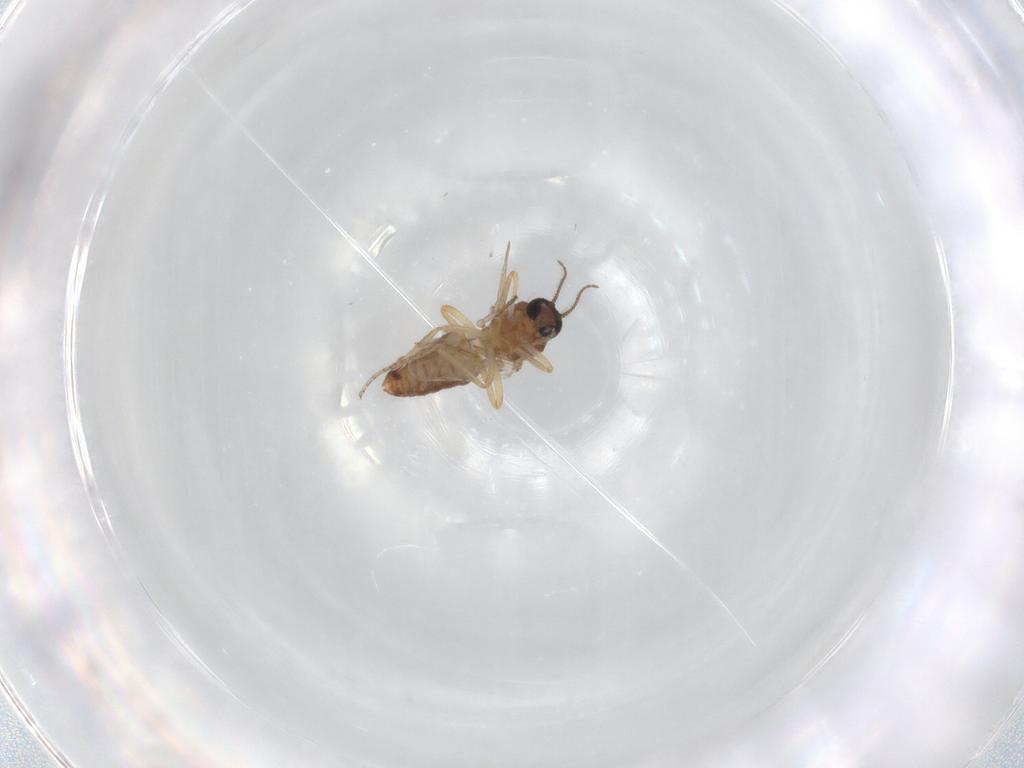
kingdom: Animalia
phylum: Arthropoda
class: Insecta
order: Diptera
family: Ceratopogonidae
